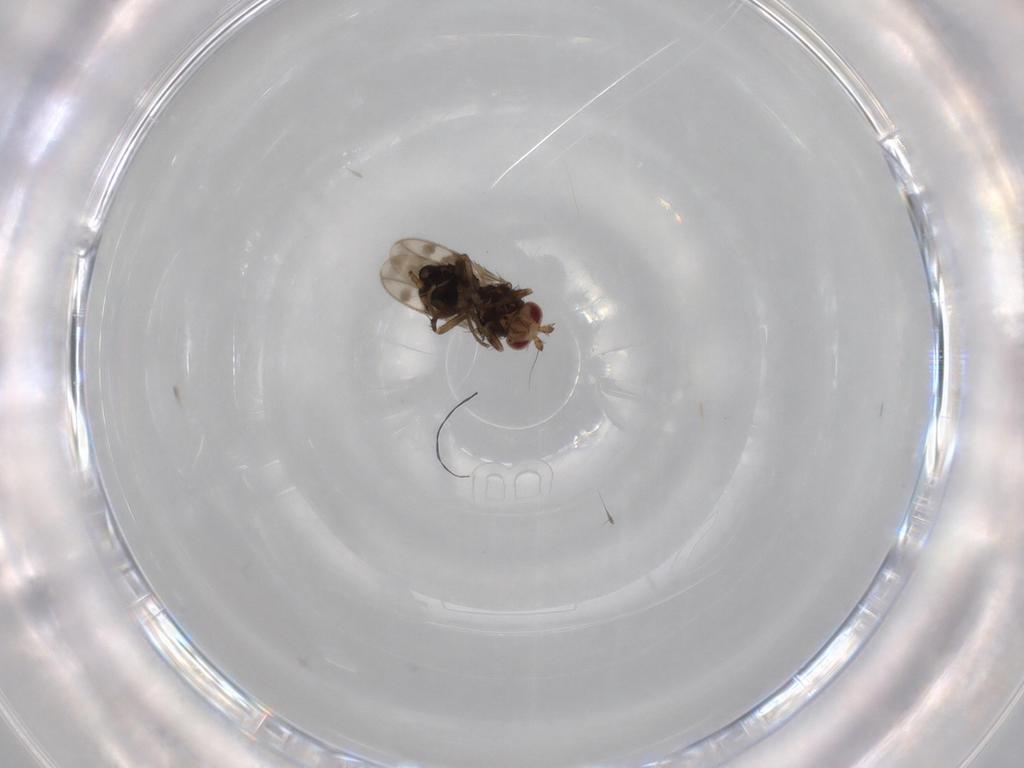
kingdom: Animalia
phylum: Arthropoda
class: Insecta
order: Diptera
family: Sphaeroceridae
